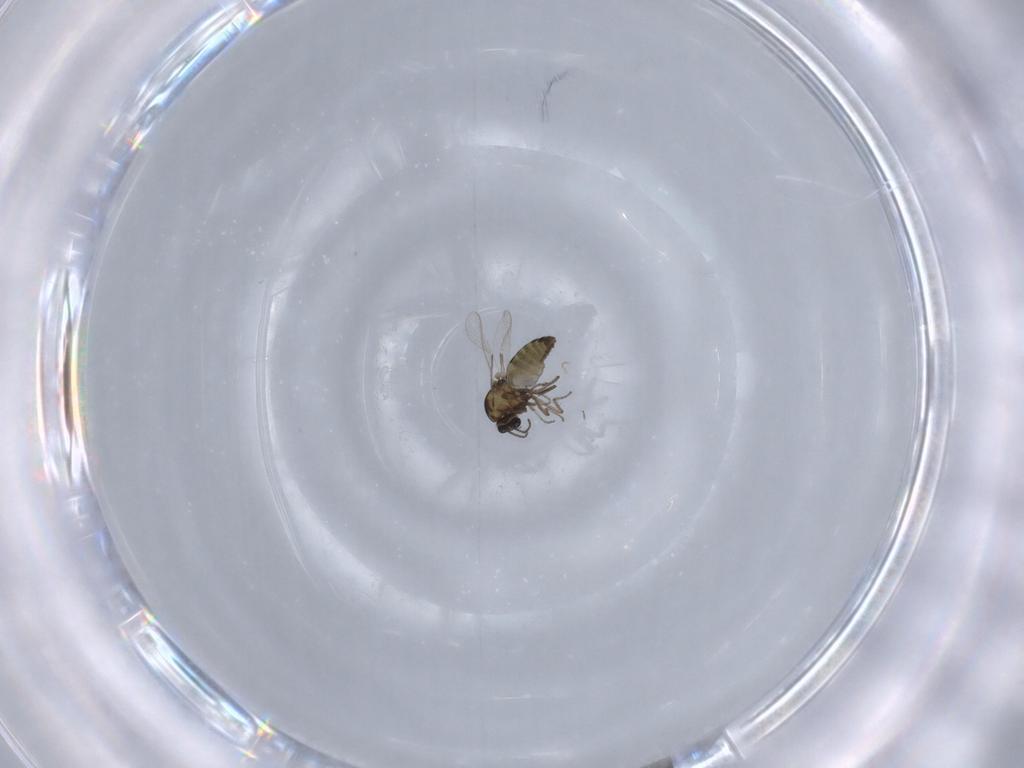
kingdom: Animalia
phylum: Arthropoda
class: Insecta
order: Diptera
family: Ceratopogonidae
